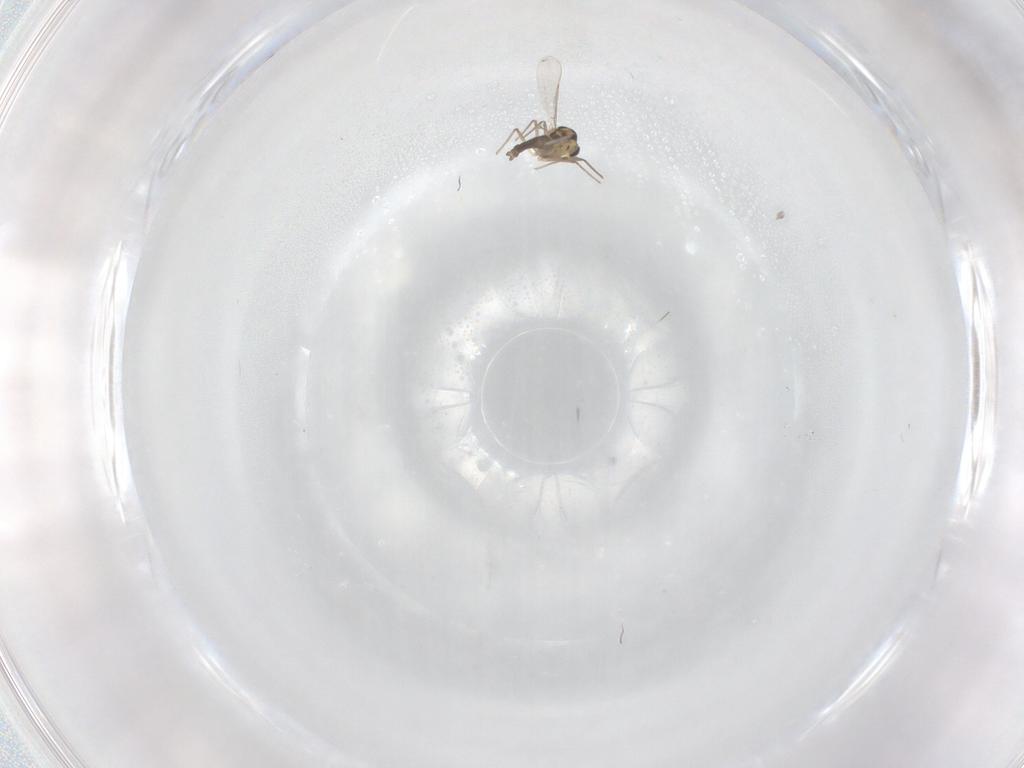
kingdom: Animalia
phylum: Arthropoda
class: Insecta
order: Diptera
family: Chironomidae
